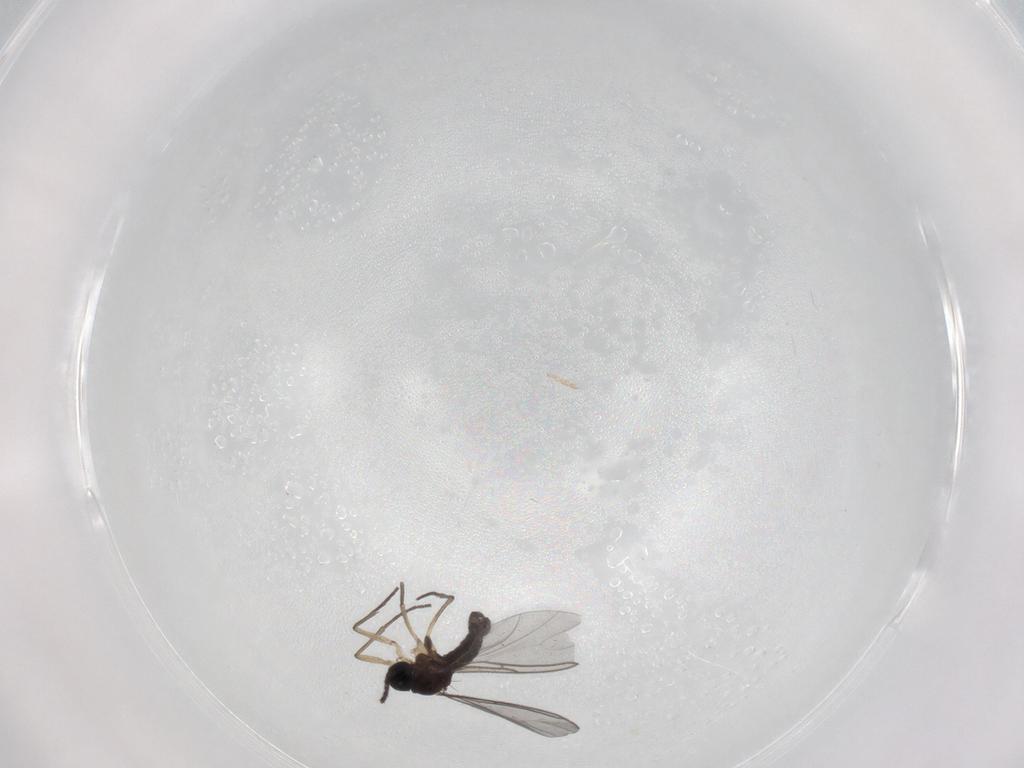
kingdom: Animalia
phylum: Arthropoda
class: Insecta
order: Diptera
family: Sciaridae
